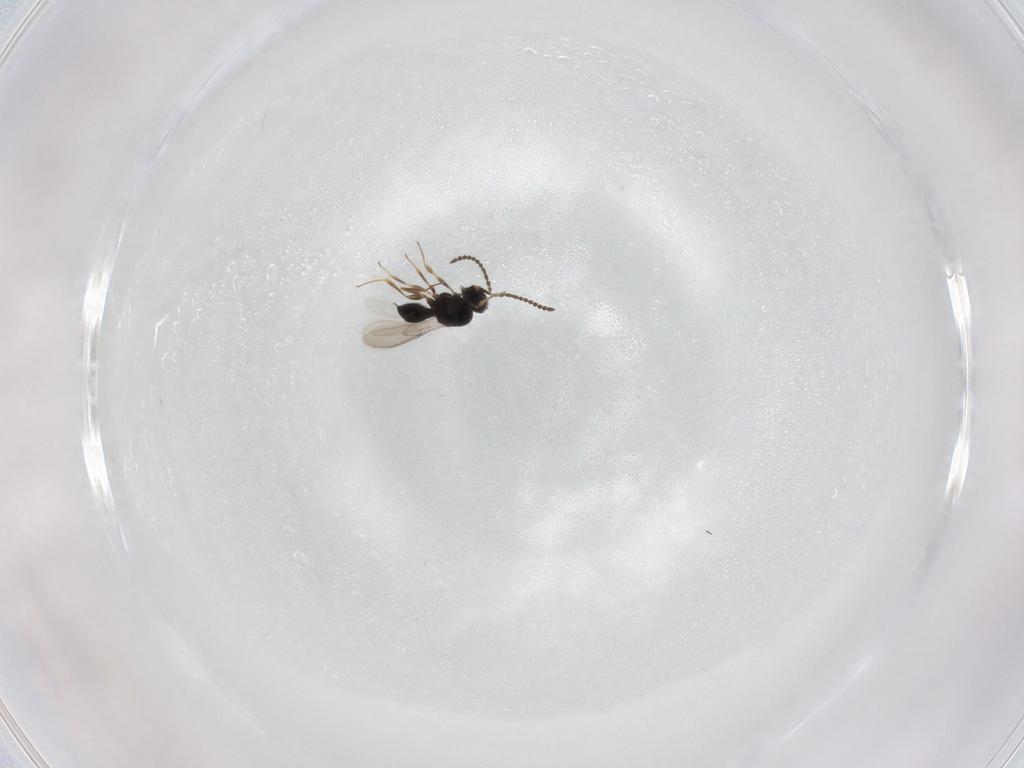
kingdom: Animalia
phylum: Arthropoda
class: Insecta
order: Hymenoptera
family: Scelionidae
